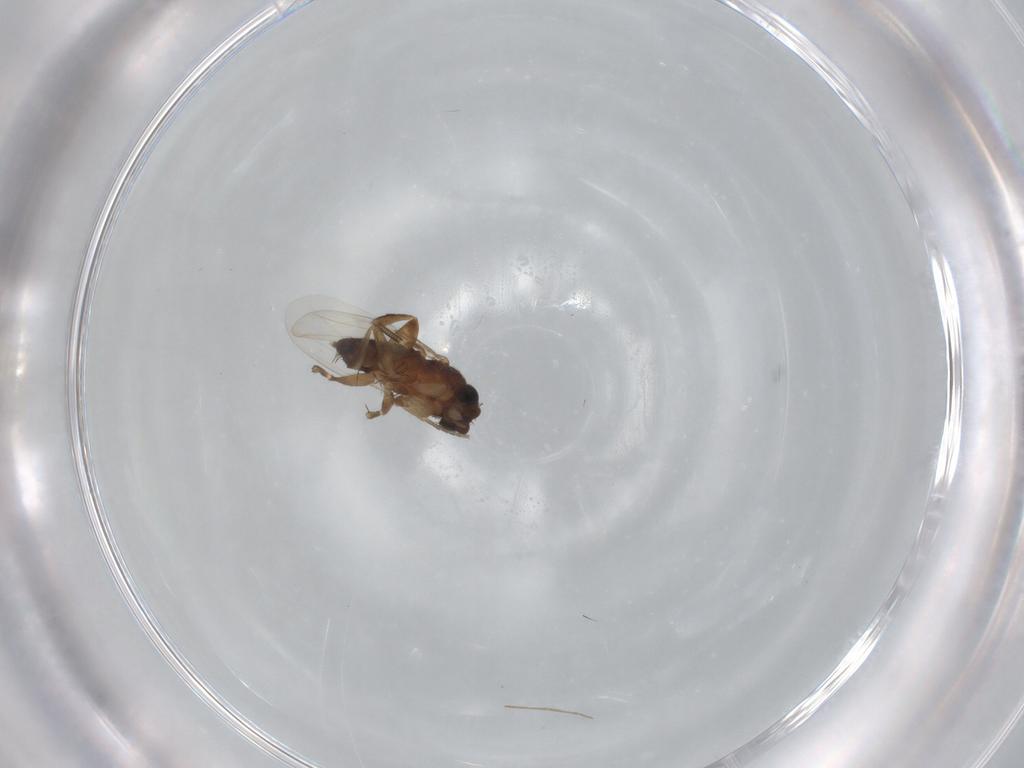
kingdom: Animalia
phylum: Arthropoda
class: Insecta
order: Diptera
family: Phoridae
